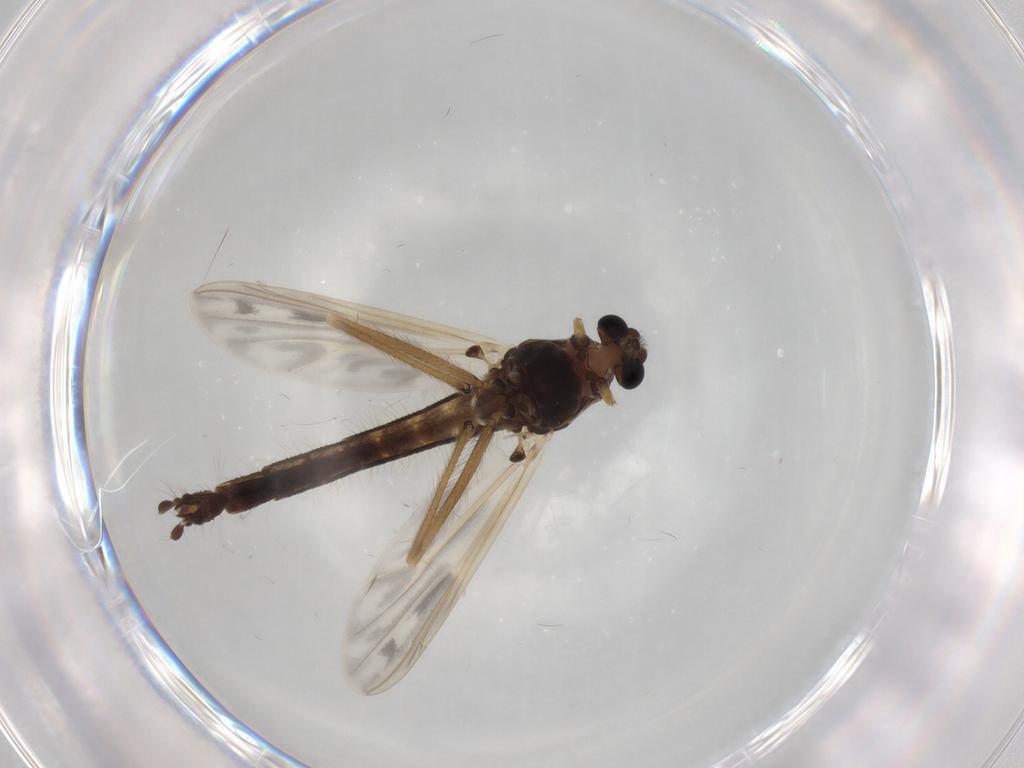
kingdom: Animalia
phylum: Arthropoda
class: Insecta
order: Diptera
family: Chironomidae
